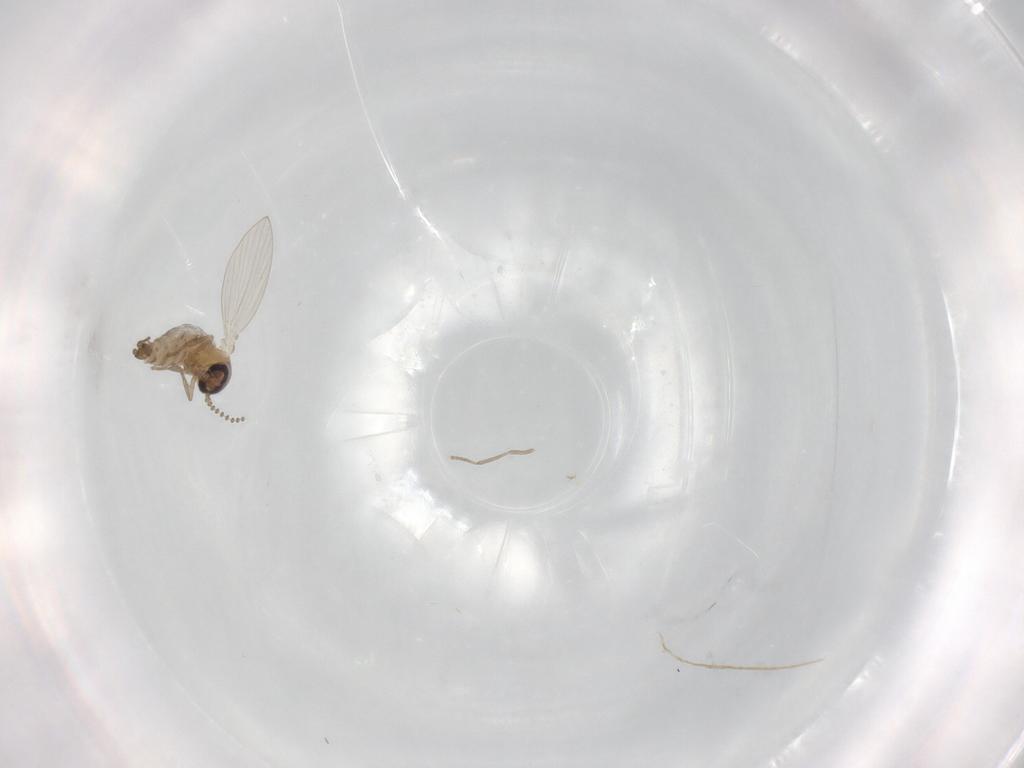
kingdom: Animalia
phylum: Arthropoda
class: Insecta
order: Diptera
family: Psychodidae
